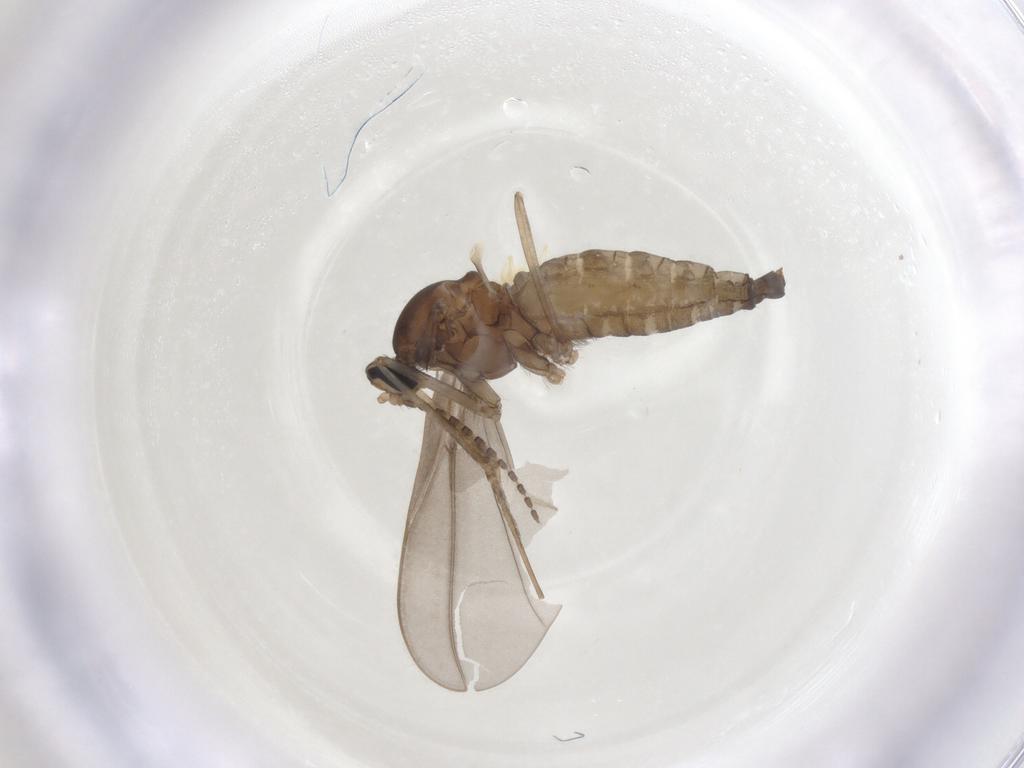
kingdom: Animalia
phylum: Arthropoda
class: Insecta
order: Diptera
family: Cecidomyiidae
